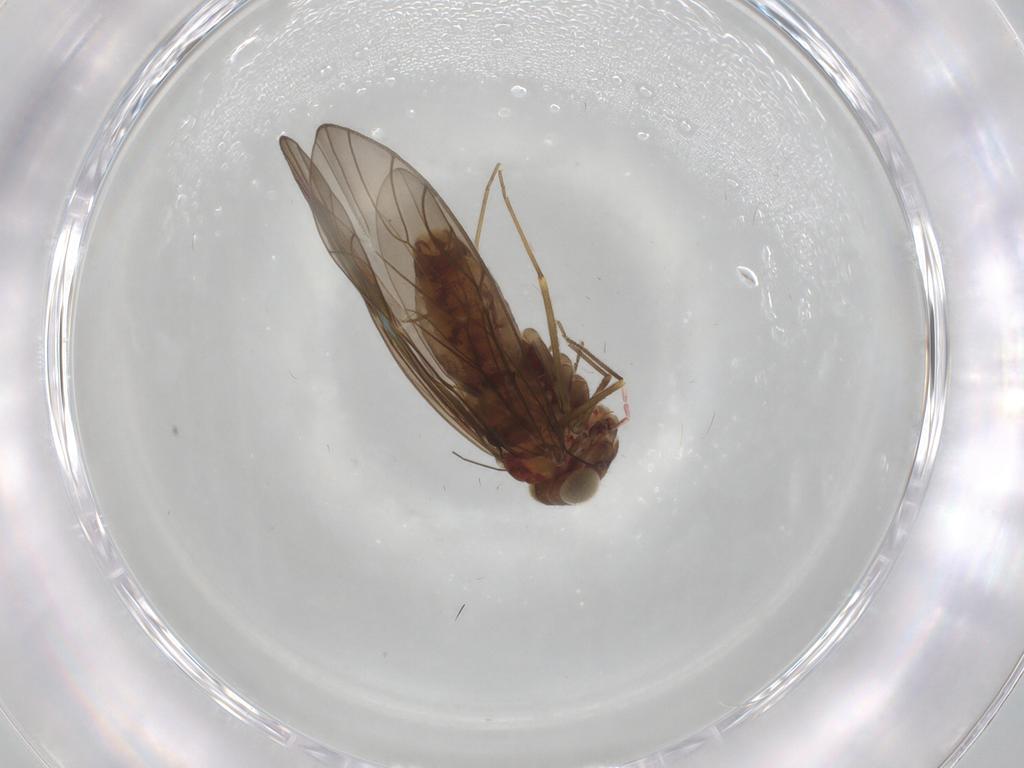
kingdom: Animalia
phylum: Arthropoda
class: Insecta
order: Psocodea
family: Philotarsidae
